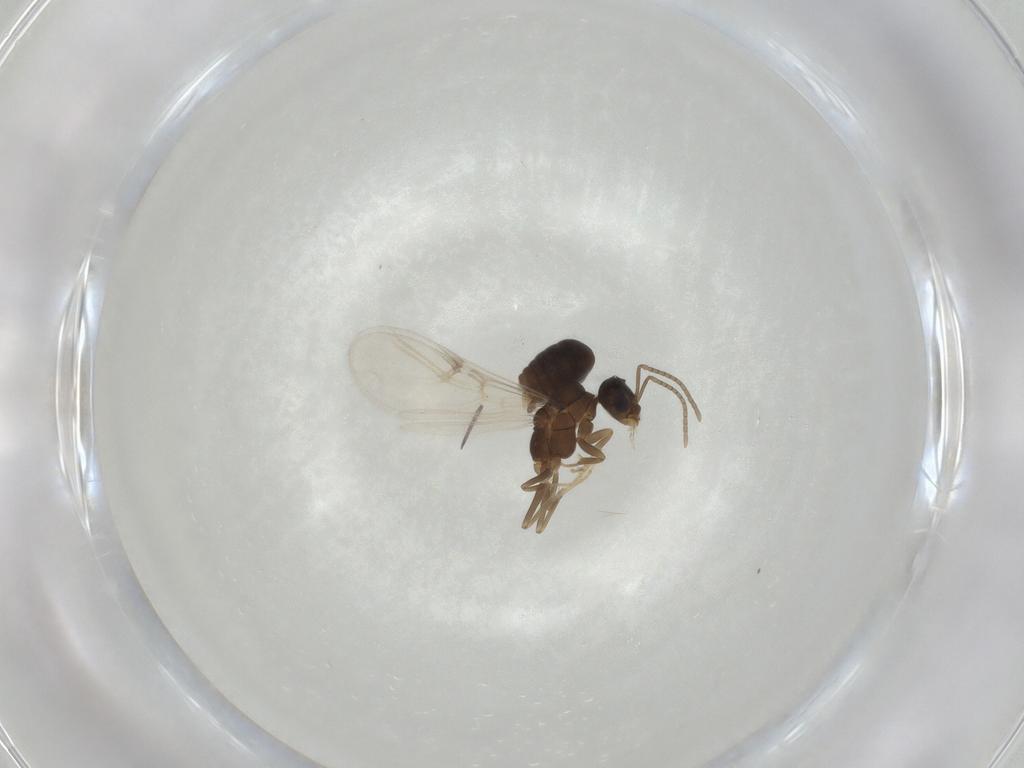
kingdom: Animalia
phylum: Arthropoda
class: Insecta
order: Hymenoptera
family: Formicidae
